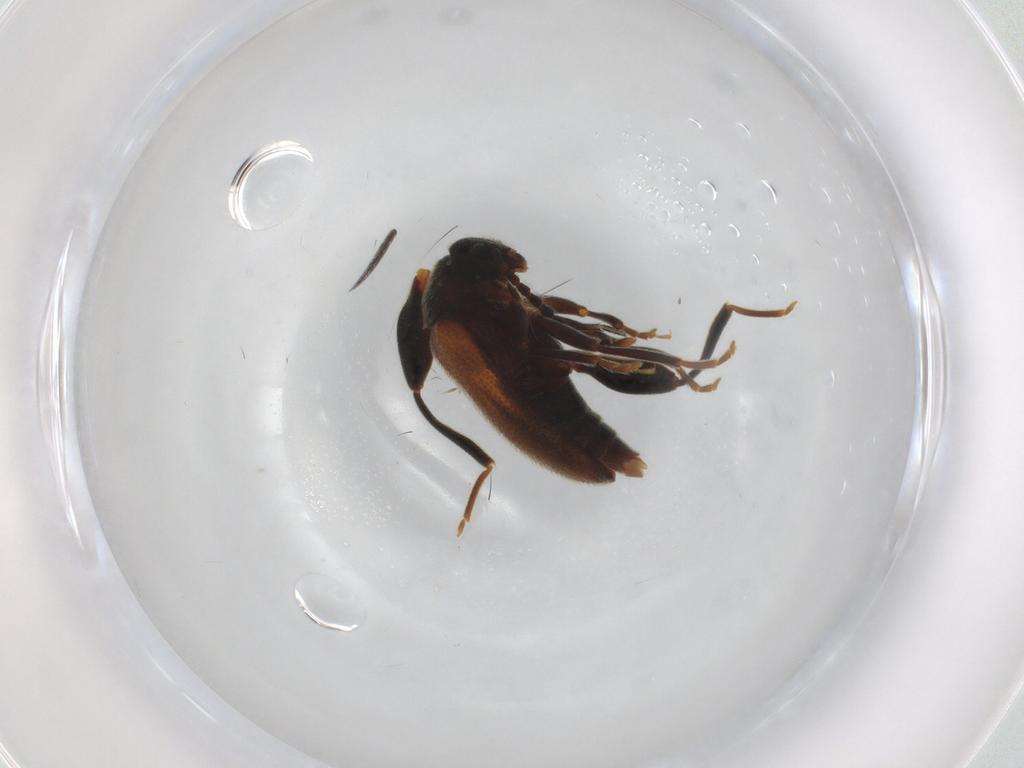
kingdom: Animalia
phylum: Arthropoda
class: Insecta
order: Coleoptera
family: Aderidae
